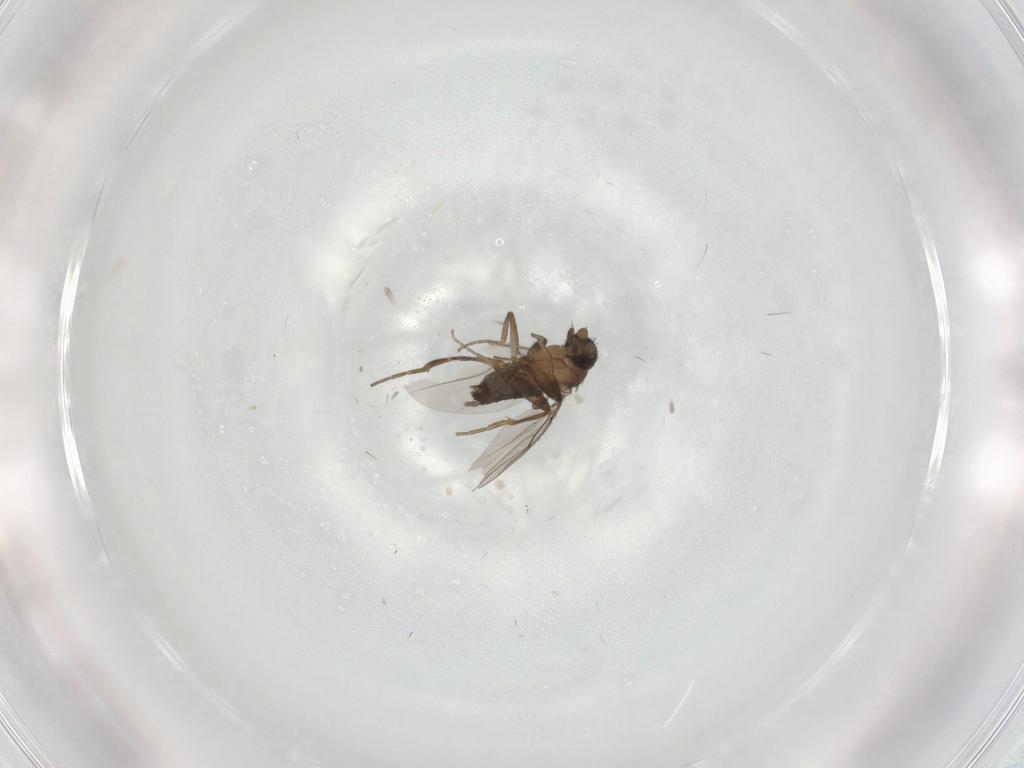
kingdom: Animalia
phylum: Arthropoda
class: Insecta
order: Diptera
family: Phoridae
